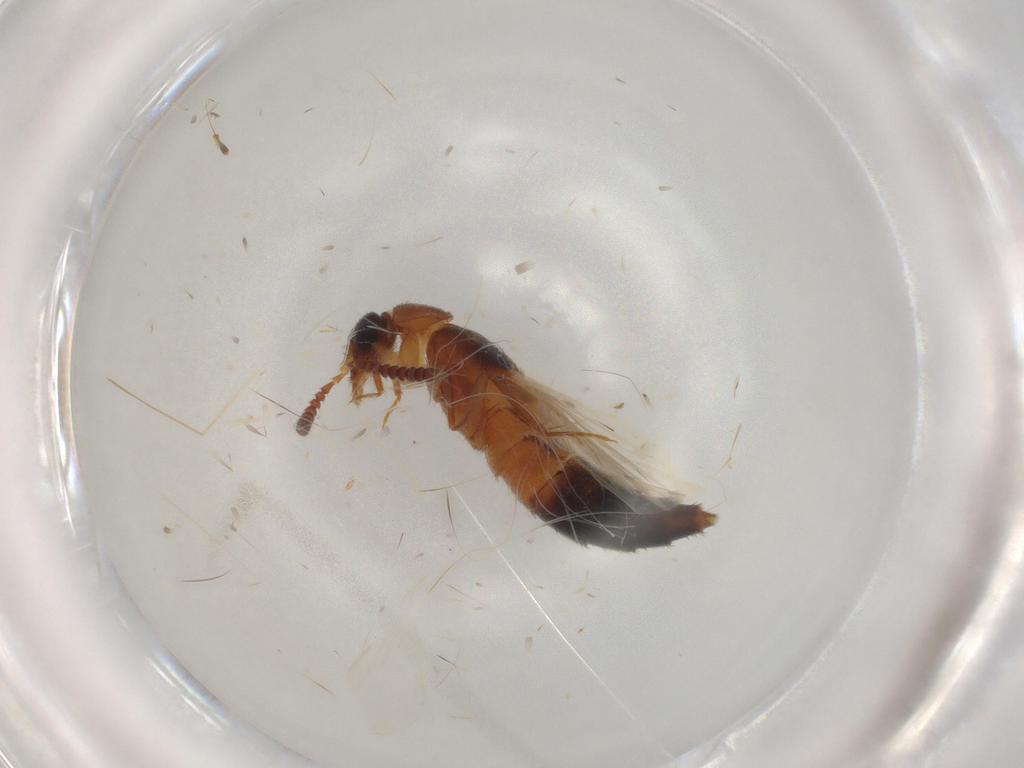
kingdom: Animalia
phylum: Arthropoda
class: Insecta
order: Coleoptera
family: Staphylinidae
